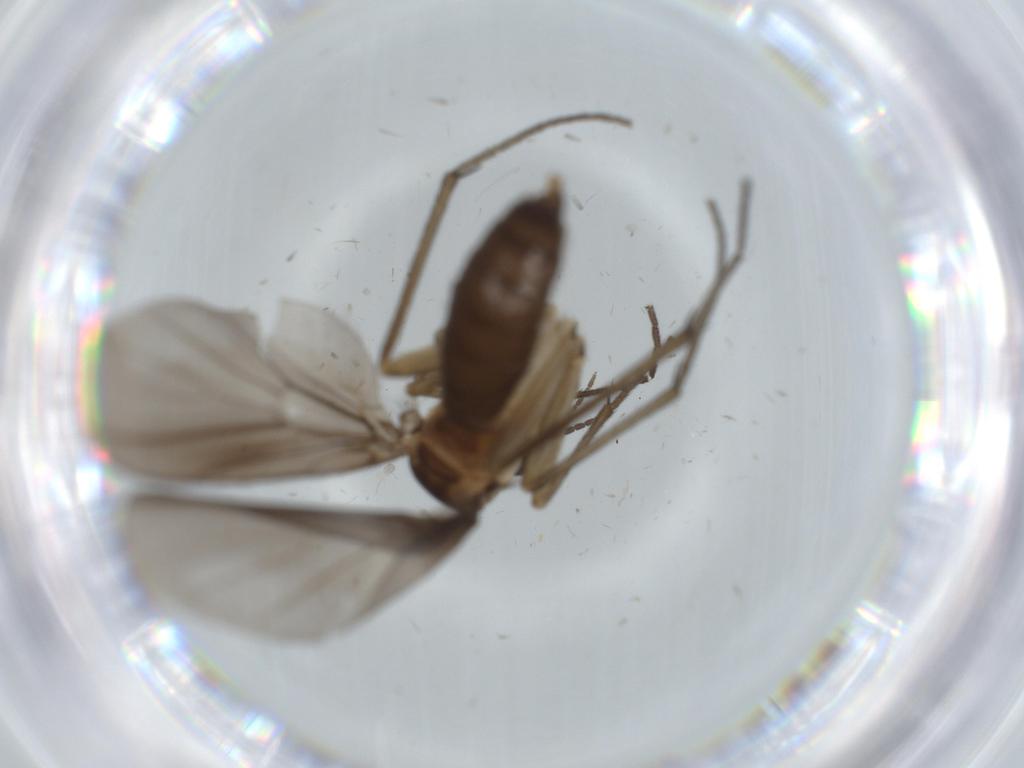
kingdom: Animalia
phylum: Arthropoda
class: Insecta
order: Diptera
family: Cecidomyiidae
